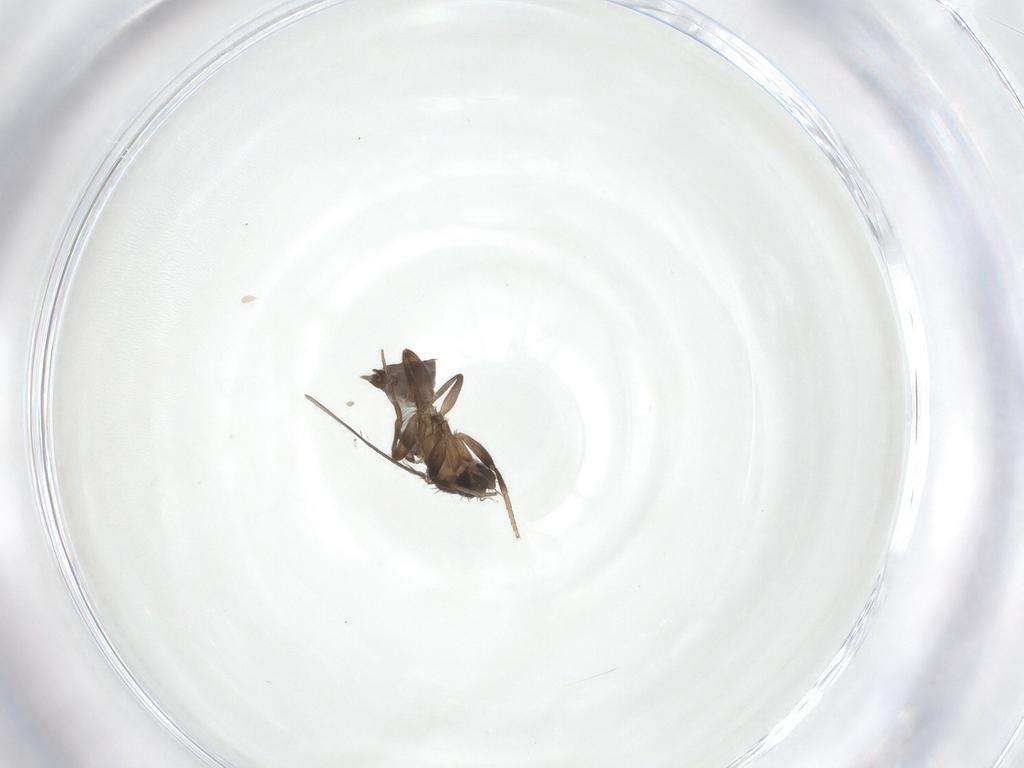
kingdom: Animalia
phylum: Arthropoda
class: Insecta
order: Diptera
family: Phoridae
